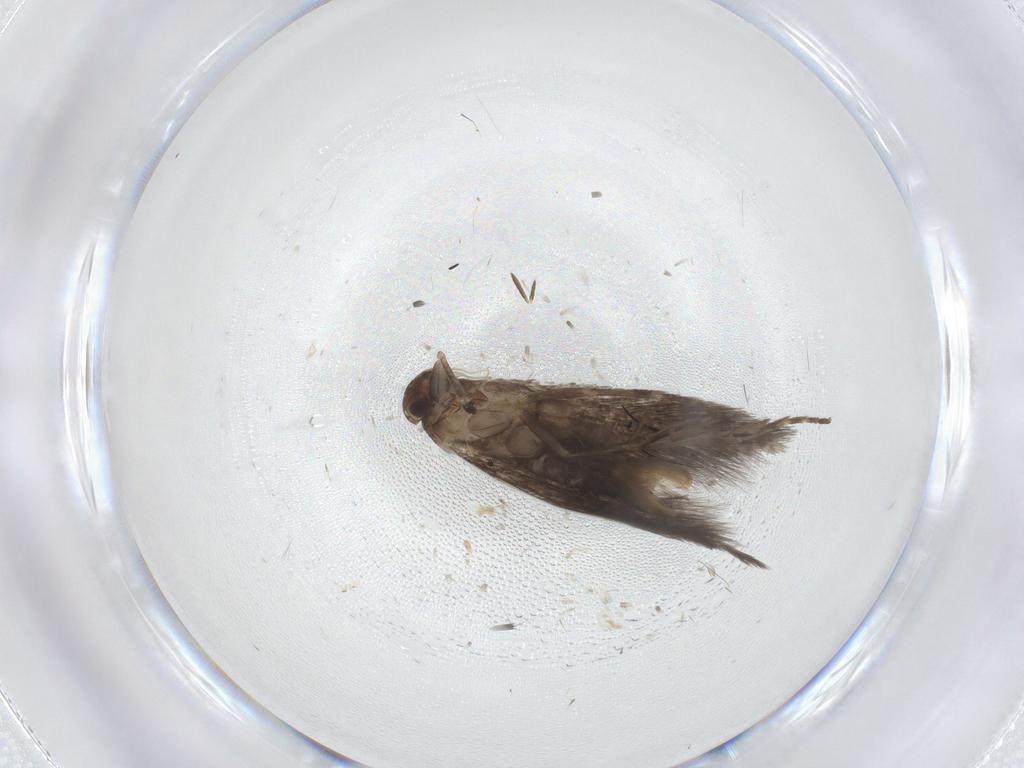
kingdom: Animalia
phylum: Arthropoda
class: Insecta
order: Lepidoptera
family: Elachistidae
